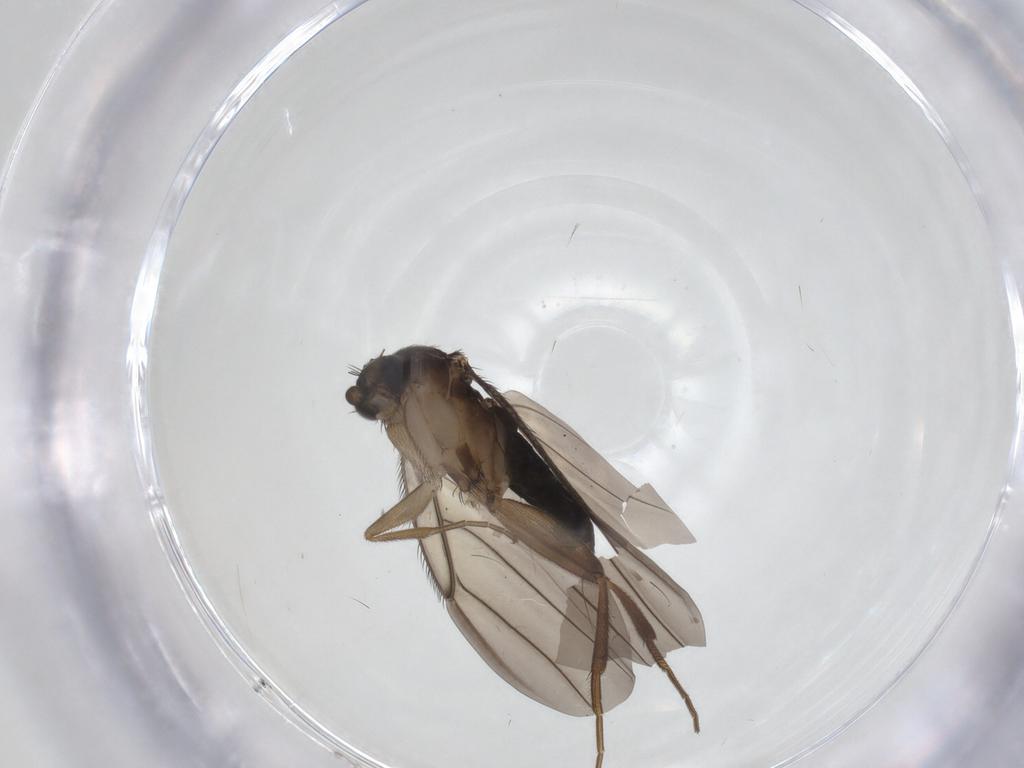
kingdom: Animalia
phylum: Arthropoda
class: Insecta
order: Diptera
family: Phoridae
